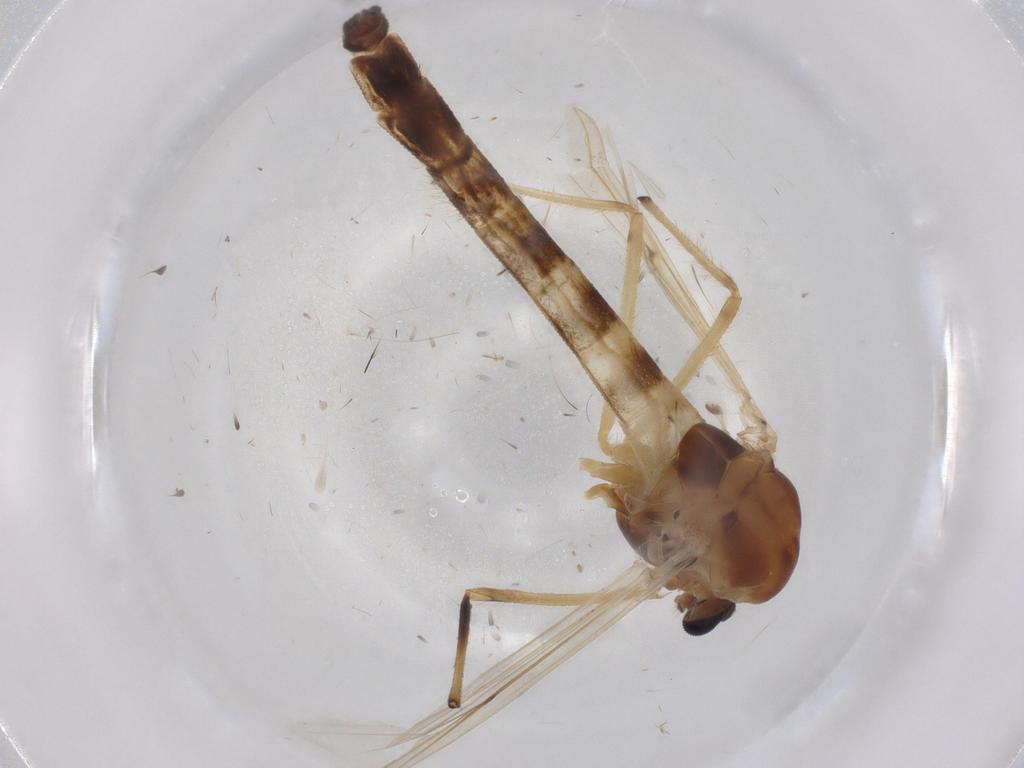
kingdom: Animalia
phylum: Arthropoda
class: Insecta
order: Diptera
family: Chironomidae
